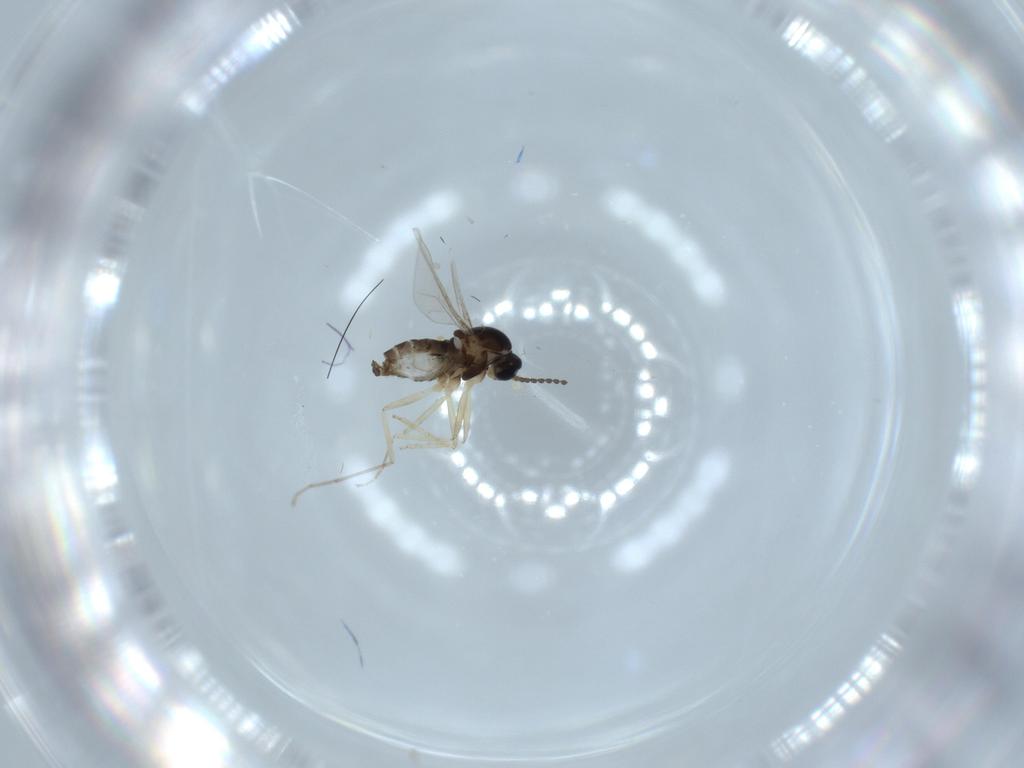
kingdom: Animalia
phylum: Arthropoda
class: Insecta
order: Diptera
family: Cecidomyiidae
